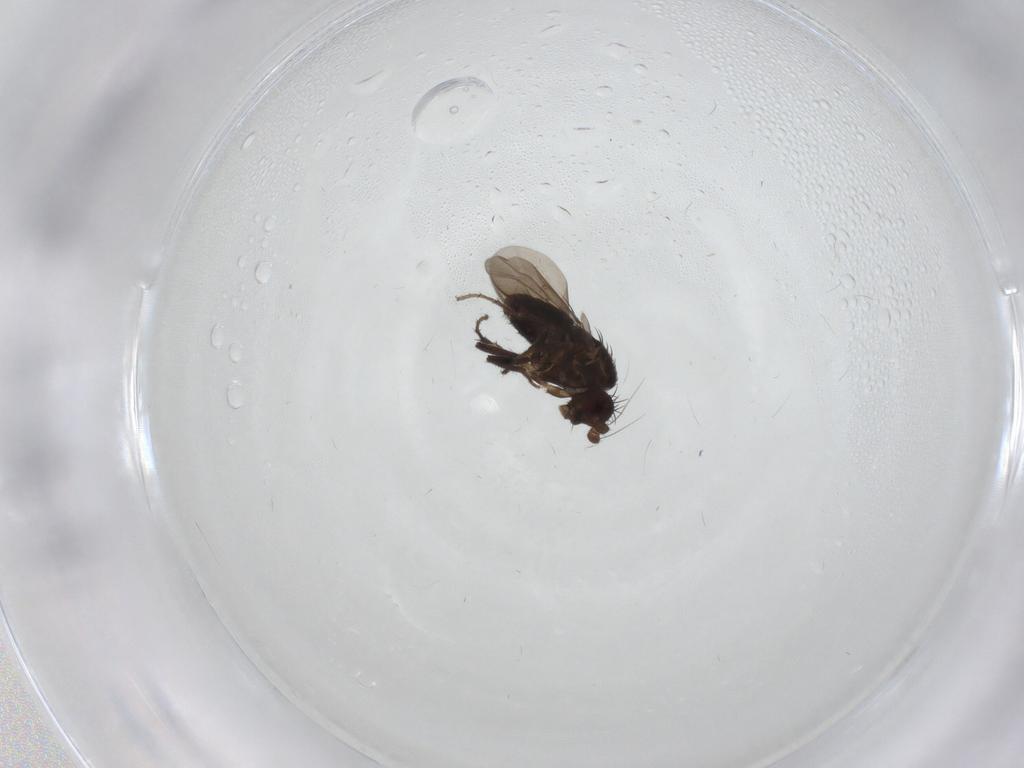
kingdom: Animalia
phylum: Arthropoda
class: Insecta
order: Diptera
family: Sphaeroceridae
